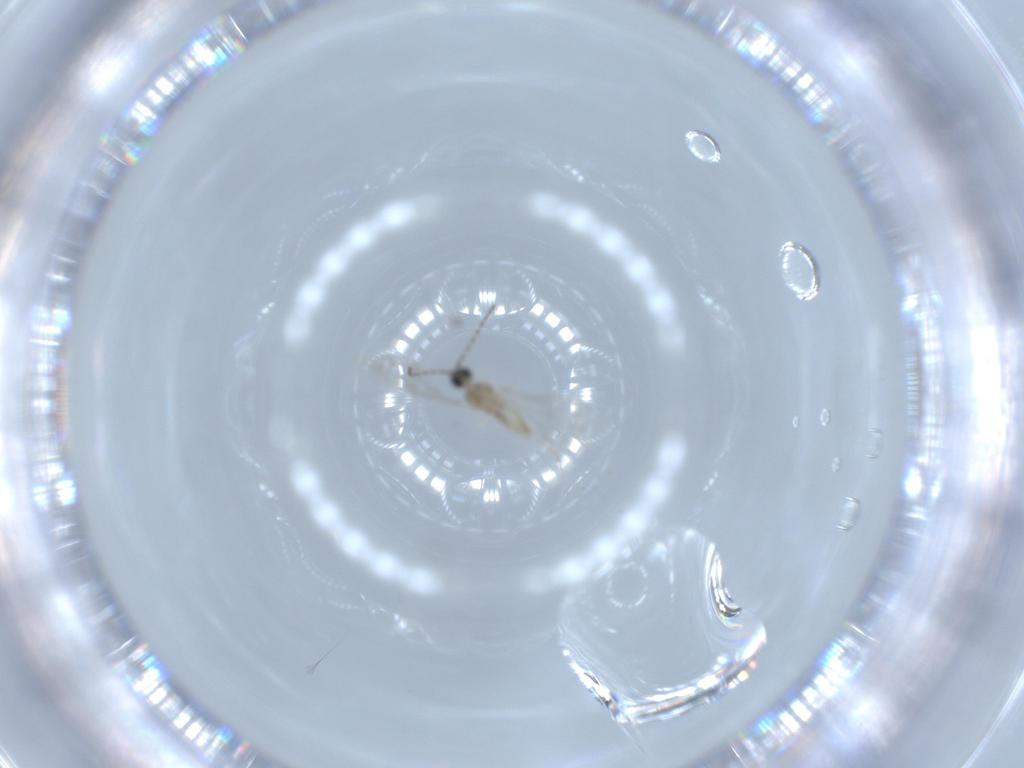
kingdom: Animalia
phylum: Arthropoda
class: Insecta
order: Diptera
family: Cecidomyiidae
